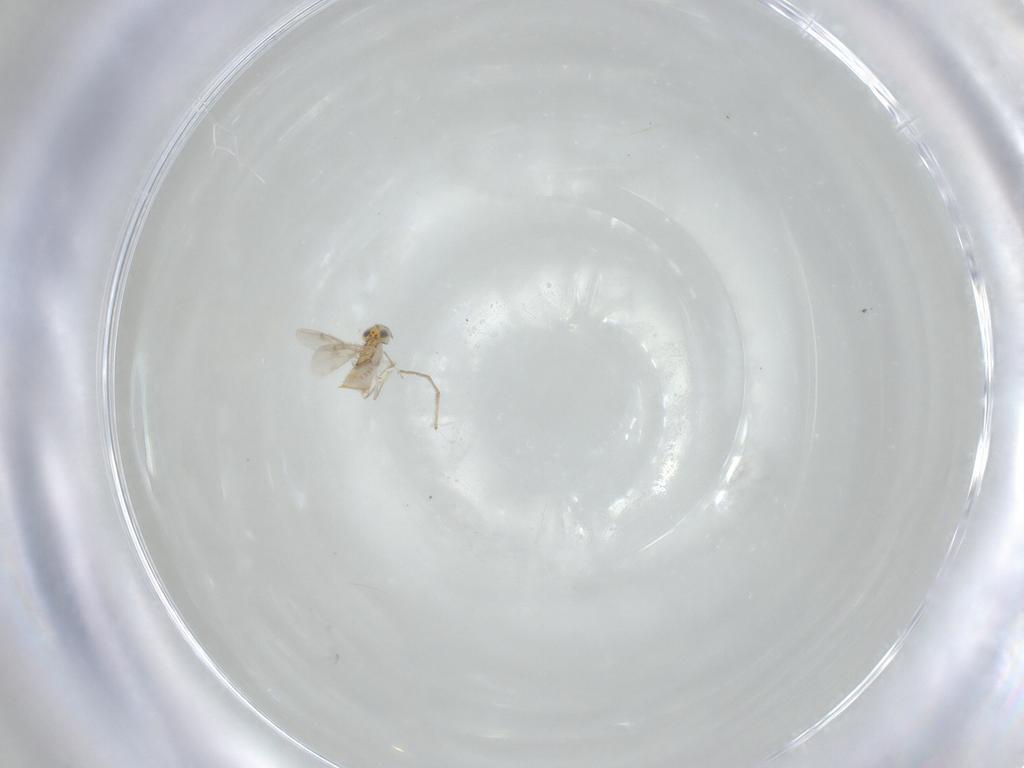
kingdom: Animalia
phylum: Arthropoda
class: Insecta
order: Hymenoptera
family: Aphelinidae
